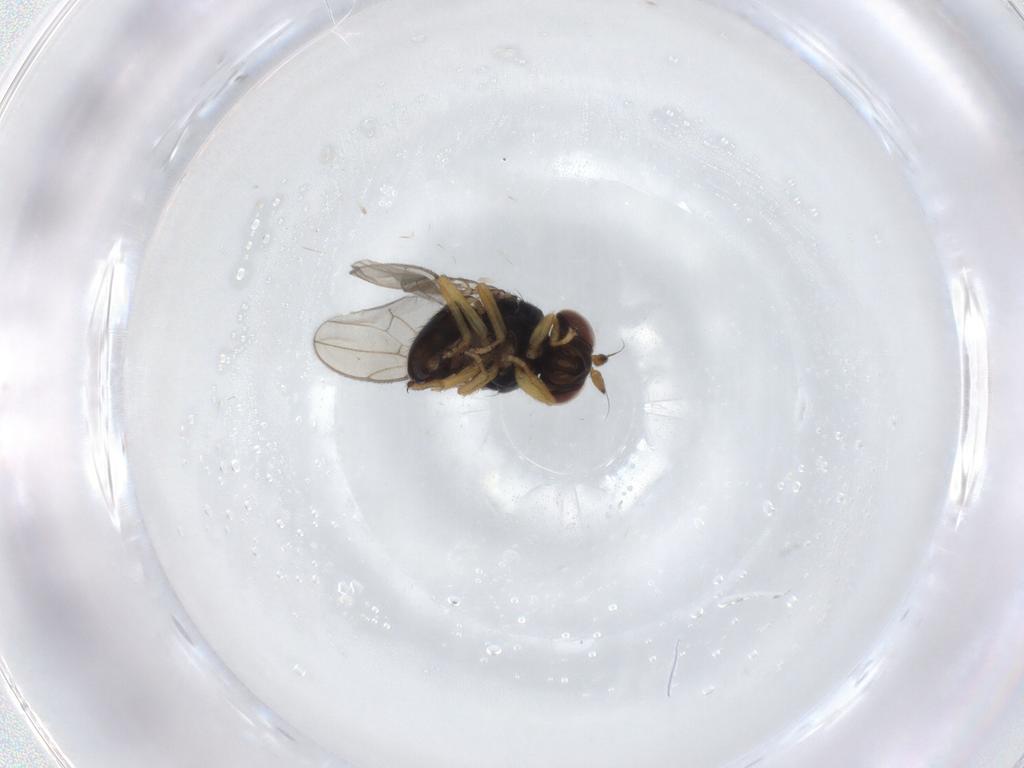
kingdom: Animalia
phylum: Arthropoda
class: Insecta
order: Diptera
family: Ephydridae
